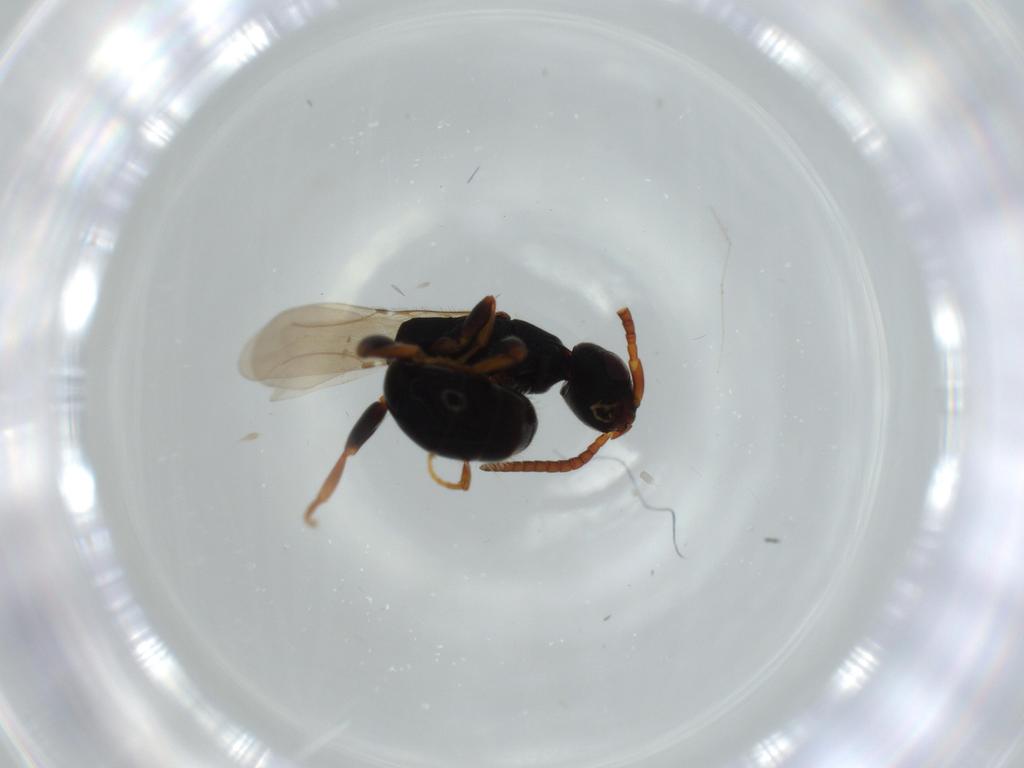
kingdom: Animalia
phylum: Arthropoda
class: Insecta
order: Hymenoptera
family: Bethylidae
